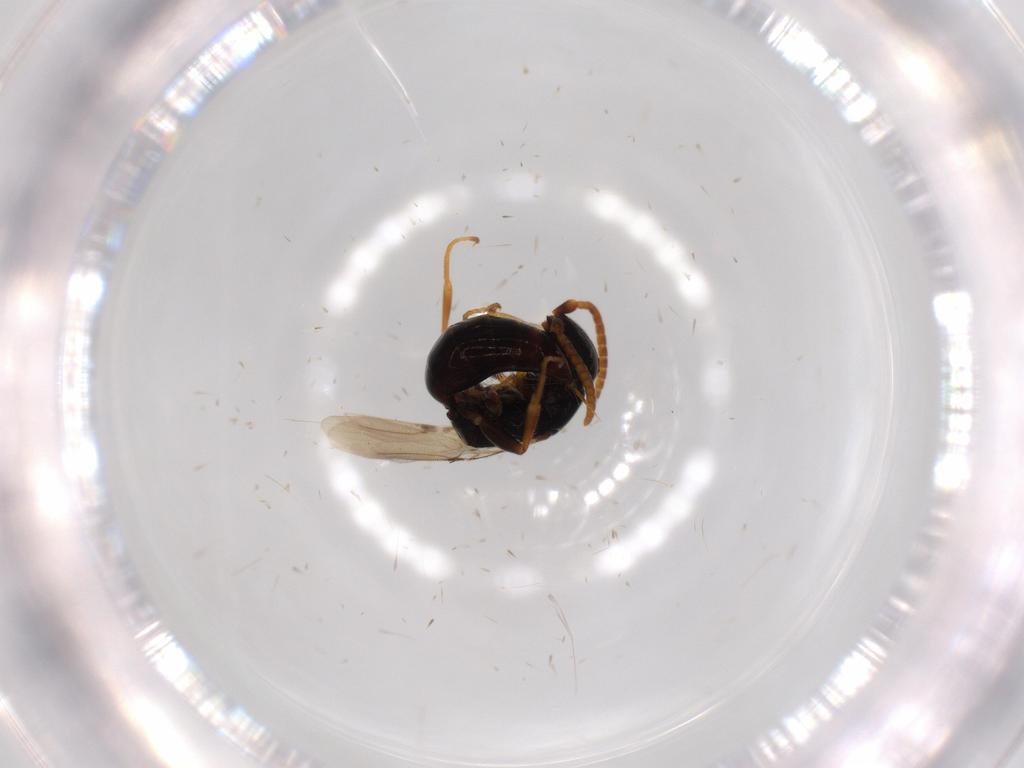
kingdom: Animalia
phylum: Arthropoda
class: Insecta
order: Hymenoptera
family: Bethylidae
